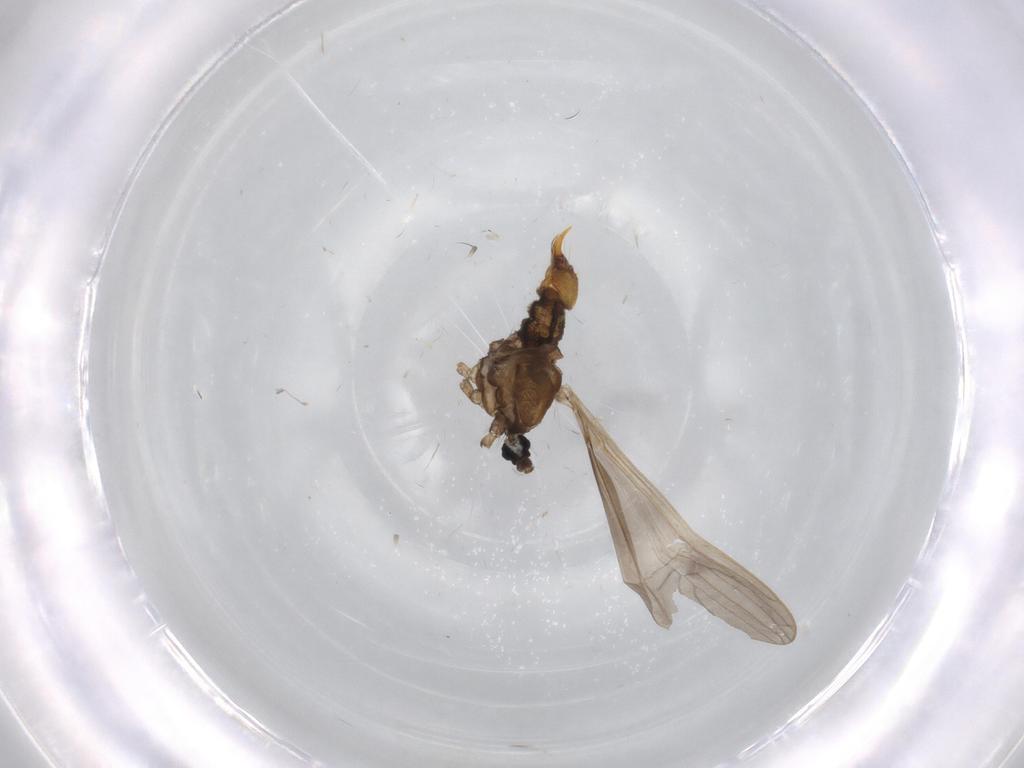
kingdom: Animalia
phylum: Arthropoda
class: Insecta
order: Diptera
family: Limoniidae
